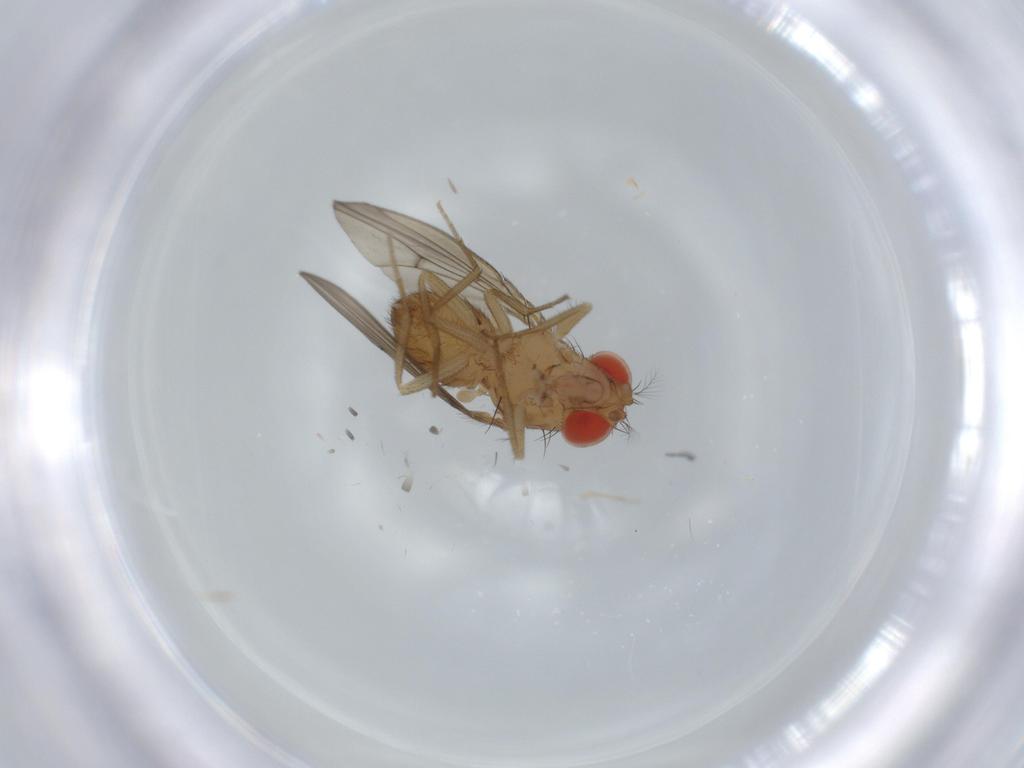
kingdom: Animalia
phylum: Arthropoda
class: Insecta
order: Diptera
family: Drosophilidae
